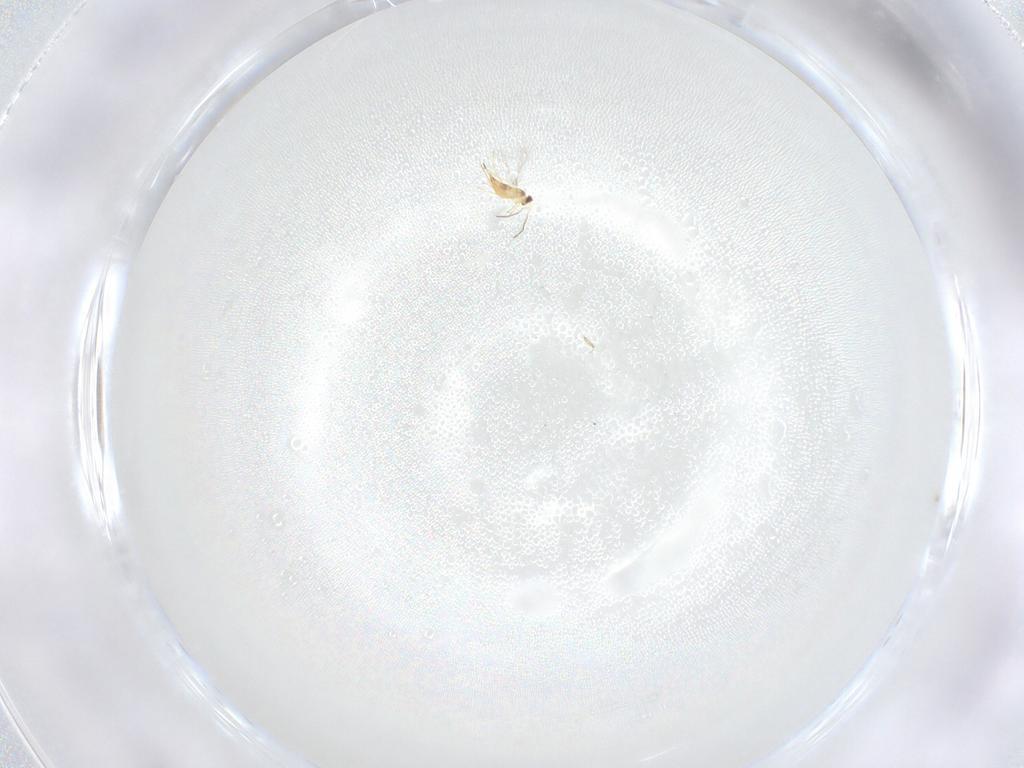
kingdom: Animalia
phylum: Arthropoda
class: Insecta
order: Hymenoptera
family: Mymaridae
